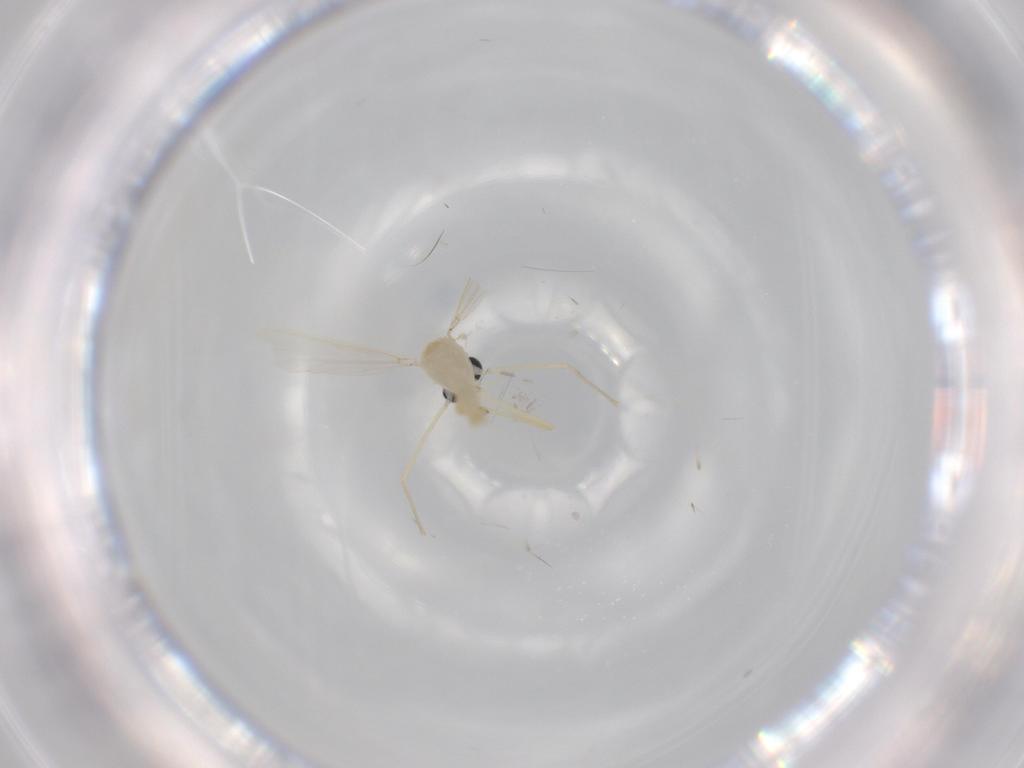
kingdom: Animalia
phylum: Arthropoda
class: Insecta
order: Diptera
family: Chironomidae
